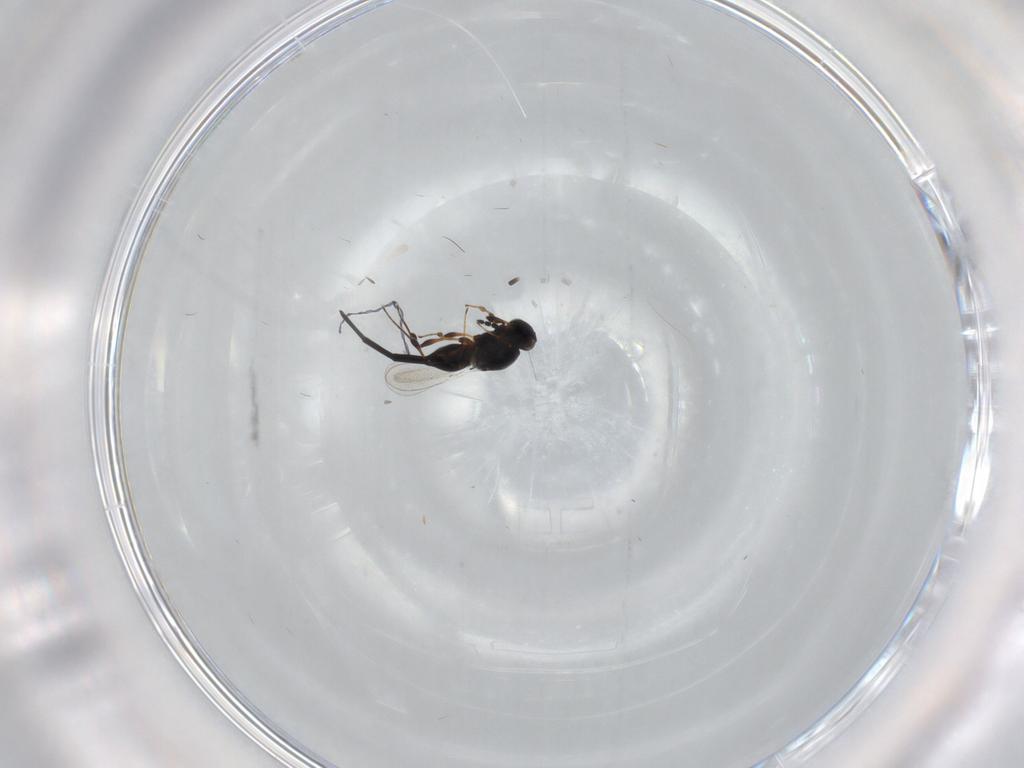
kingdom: Animalia
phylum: Arthropoda
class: Insecta
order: Hymenoptera
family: Platygastridae
